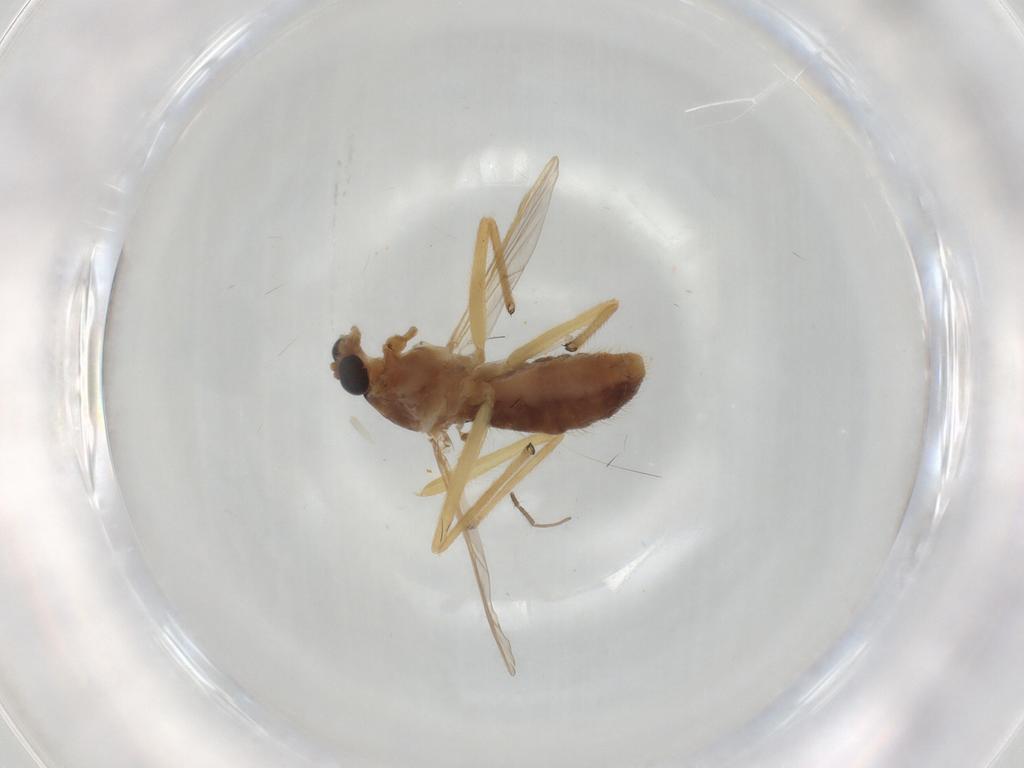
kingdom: Animalia
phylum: Arthropoda
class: Insecta
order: Diptera
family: Chironomidae
